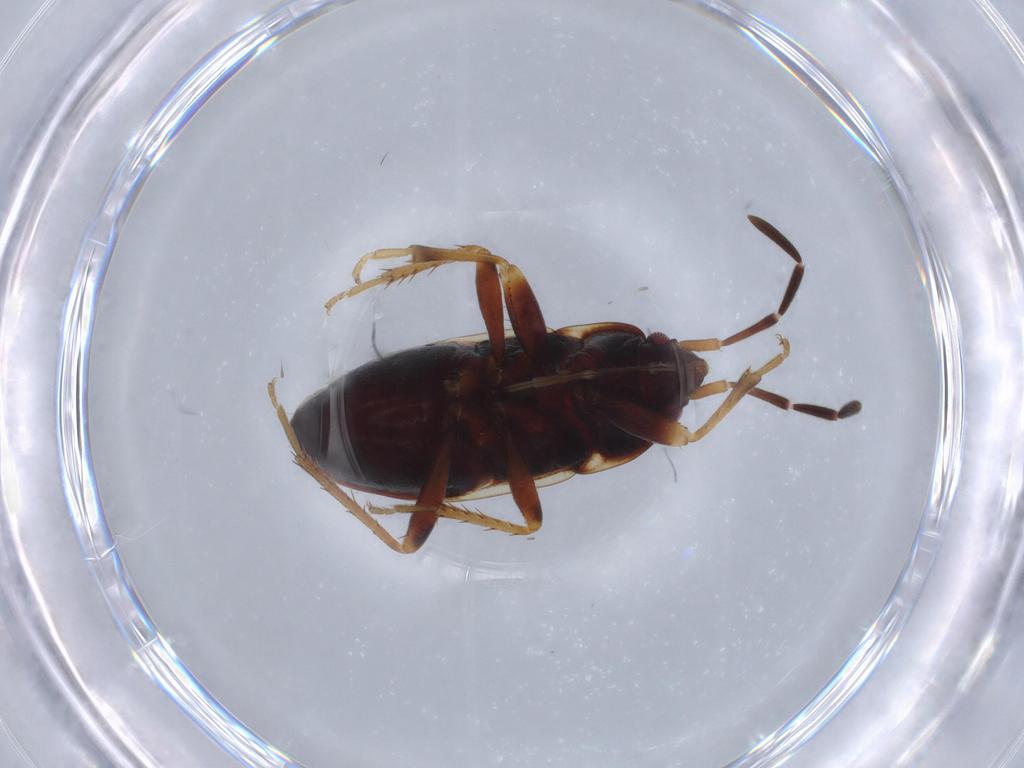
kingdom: Animalia
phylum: Arthropoda
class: Insecta
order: Hemiptera
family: Rhyparochromidae
